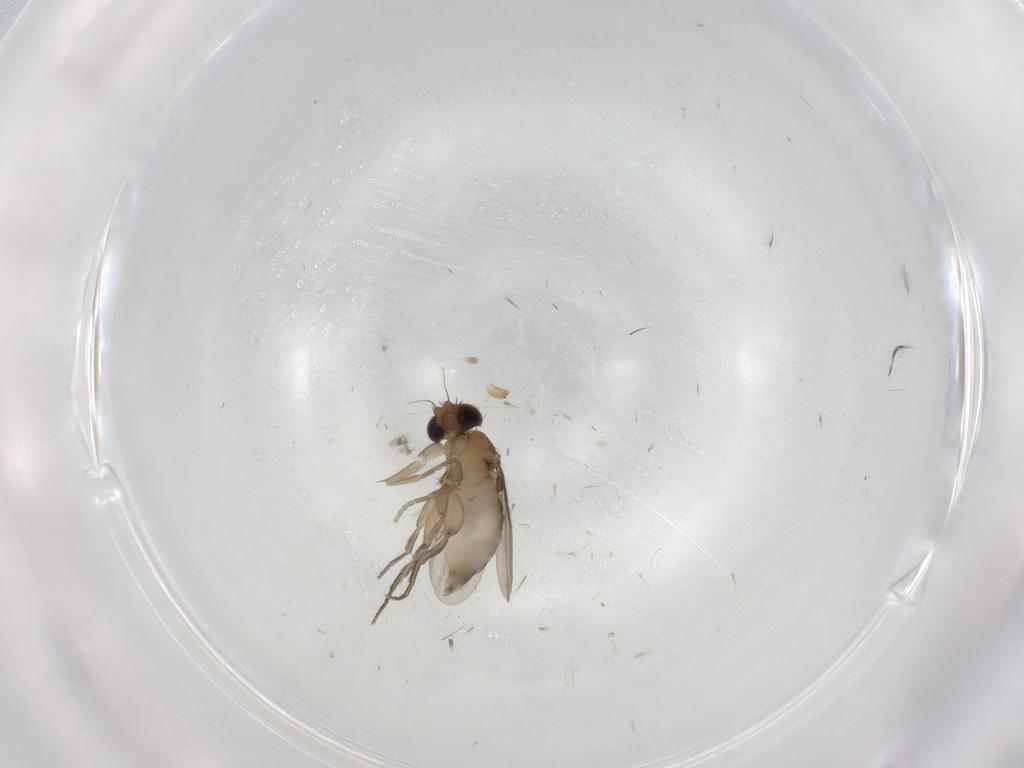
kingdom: Animalia
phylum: Arthropoda
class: Insecta
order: Diptera
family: Phoridae
